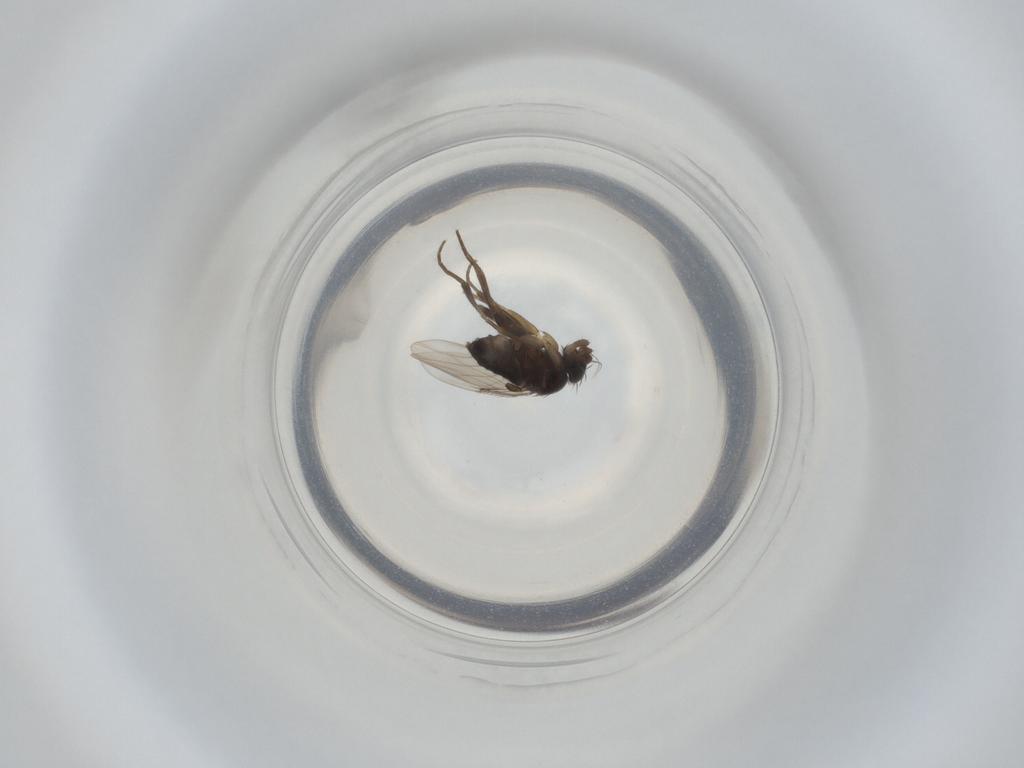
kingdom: Animalia
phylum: Arthropoda
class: Insecta
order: Diptera
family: Phoridae
